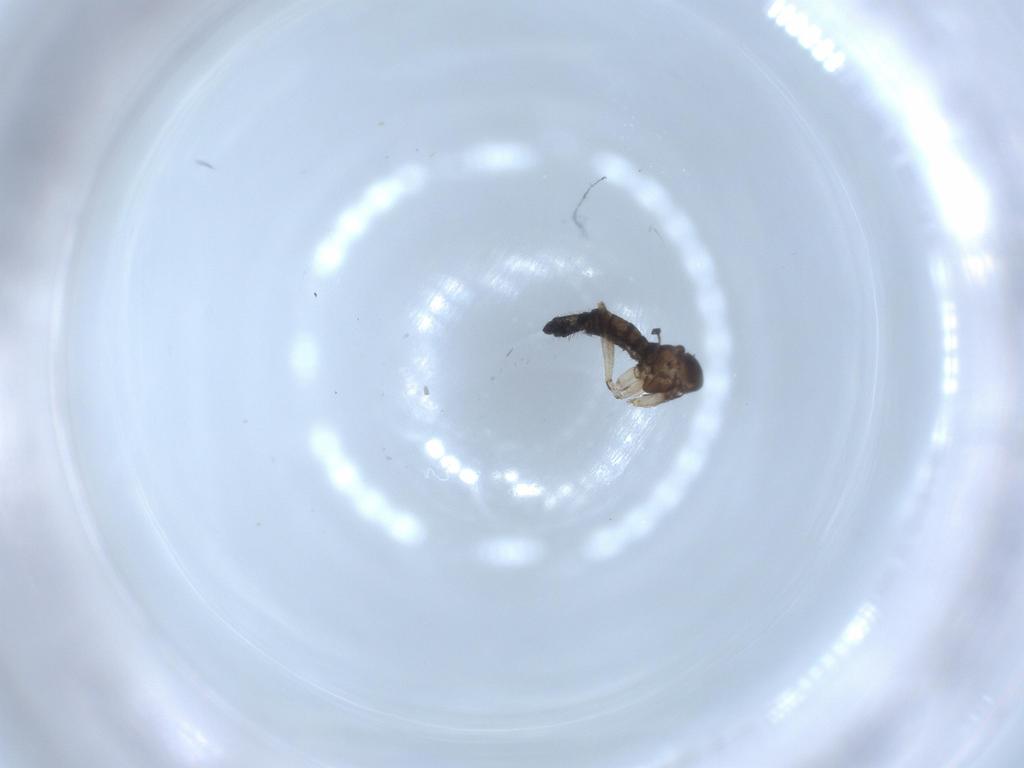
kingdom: Animalia
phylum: Arthropoda
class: Insecta
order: Diptera
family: Sciaridae
